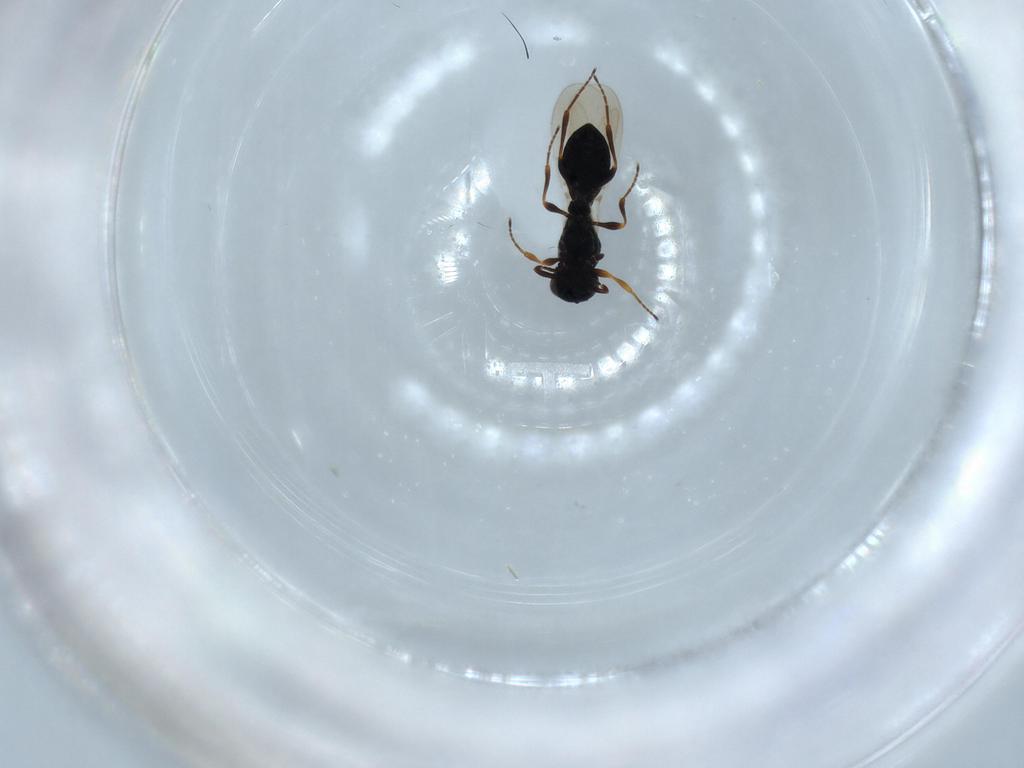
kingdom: Animalia
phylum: Arthropoda
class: Insecta
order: Hymenoptera
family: Platygastridae
